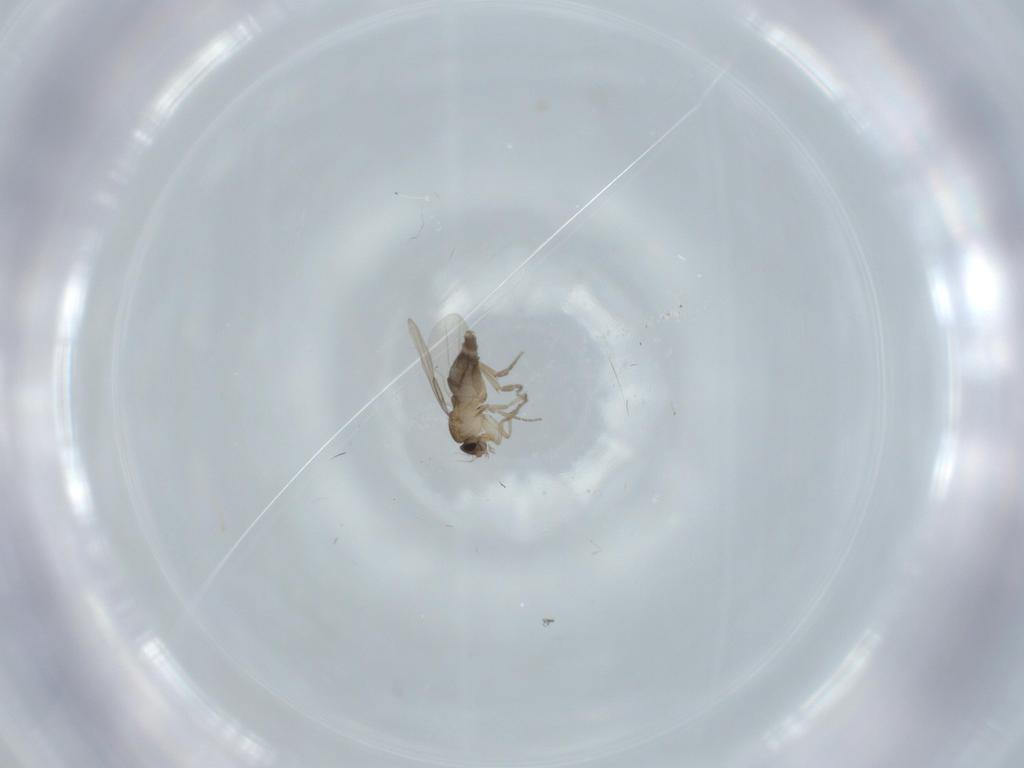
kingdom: Animalia
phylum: Arthropoda
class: Insecta
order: Diptera
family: Phoridae
